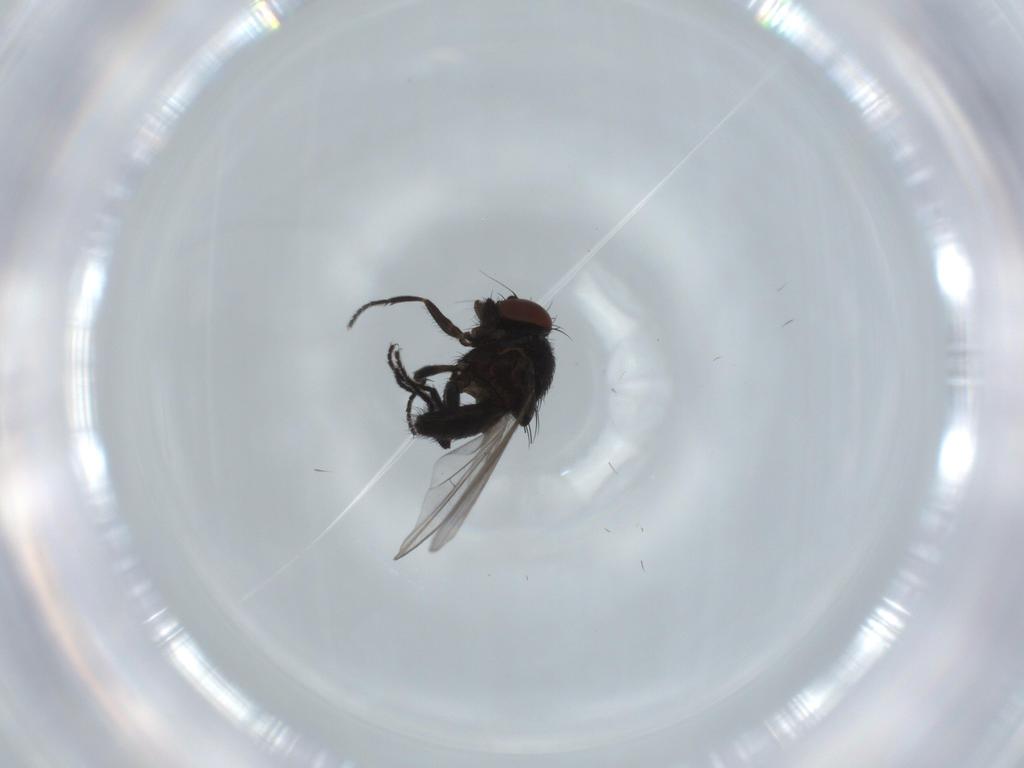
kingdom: Animalia
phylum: Arthropoda
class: Insecta
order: Diptera
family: Milichiidae
